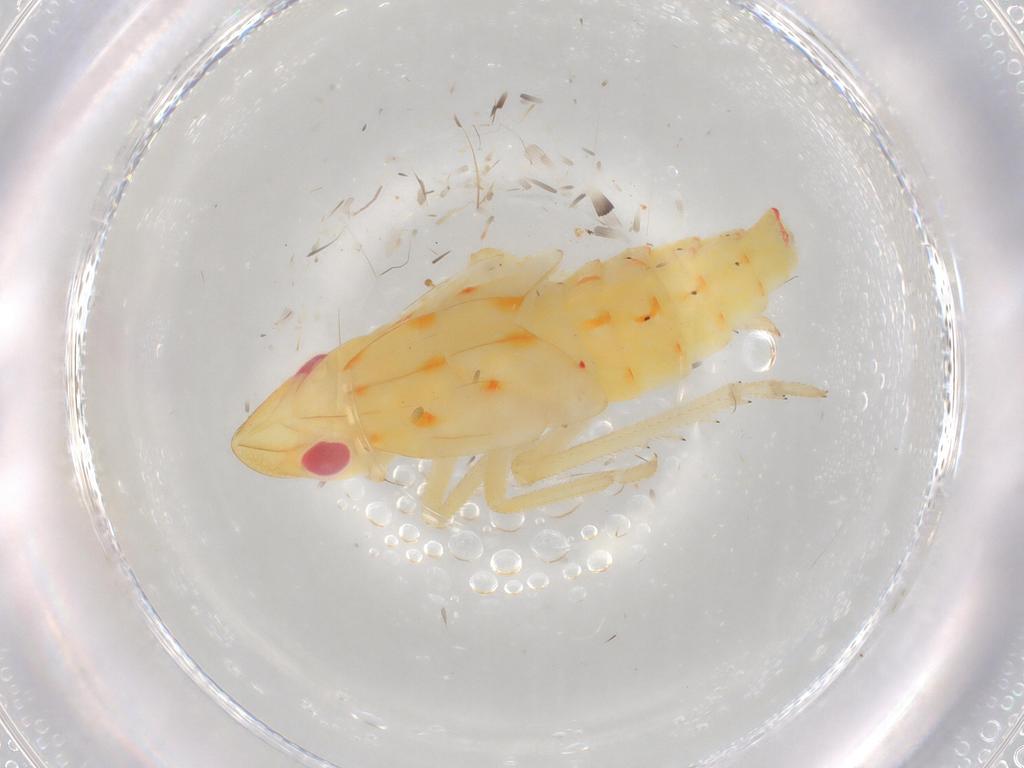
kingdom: Animalia
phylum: Arthropoda
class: Insecta
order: Hemiptera
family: Tropiduchidae
